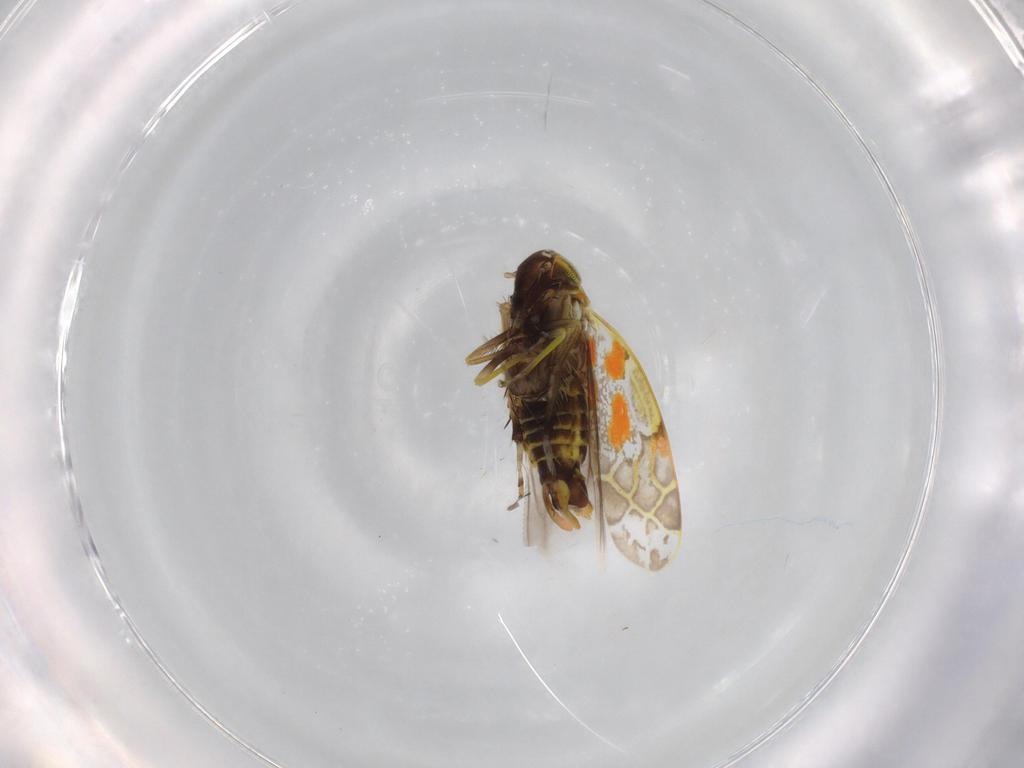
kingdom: Animalia
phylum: Arthropoda
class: Insecta
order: Hemiptera
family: Cicadellidae
